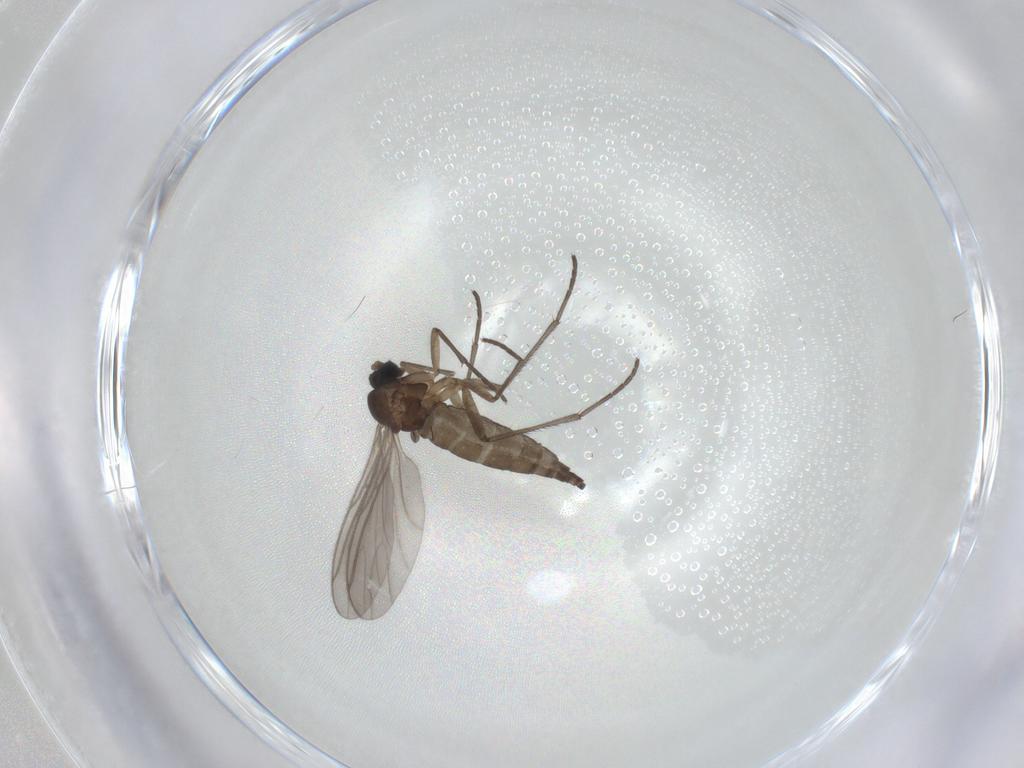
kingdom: Animalia
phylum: Arthropoda
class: Insecta
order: Diptera
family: Sciaridae
